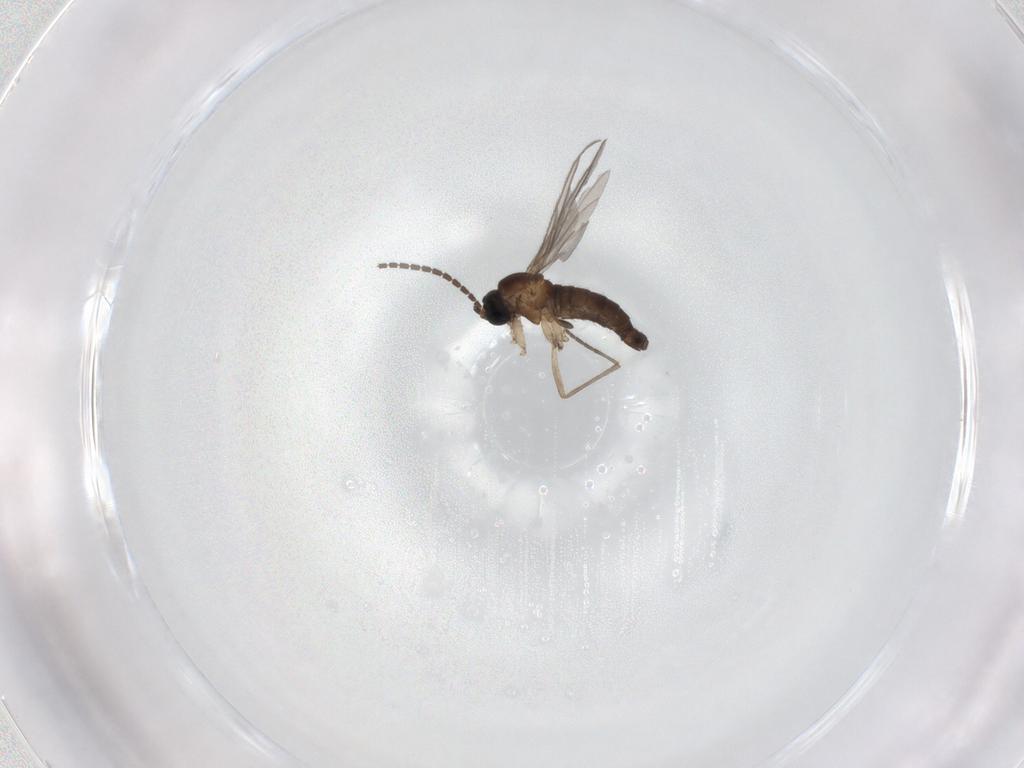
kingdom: Animalia
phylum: Arthropoda
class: Insecta
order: Diptera
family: Sciaridae
